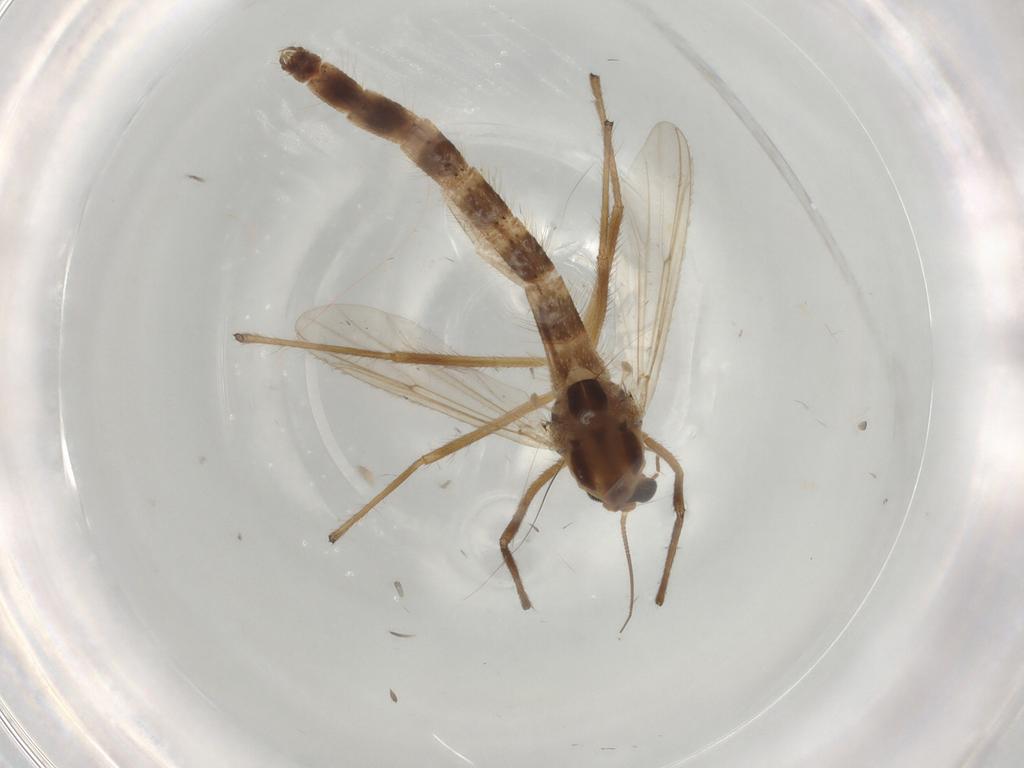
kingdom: Animalia
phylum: Arthropoda
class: Insecta
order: Diptera
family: Chironomidae
